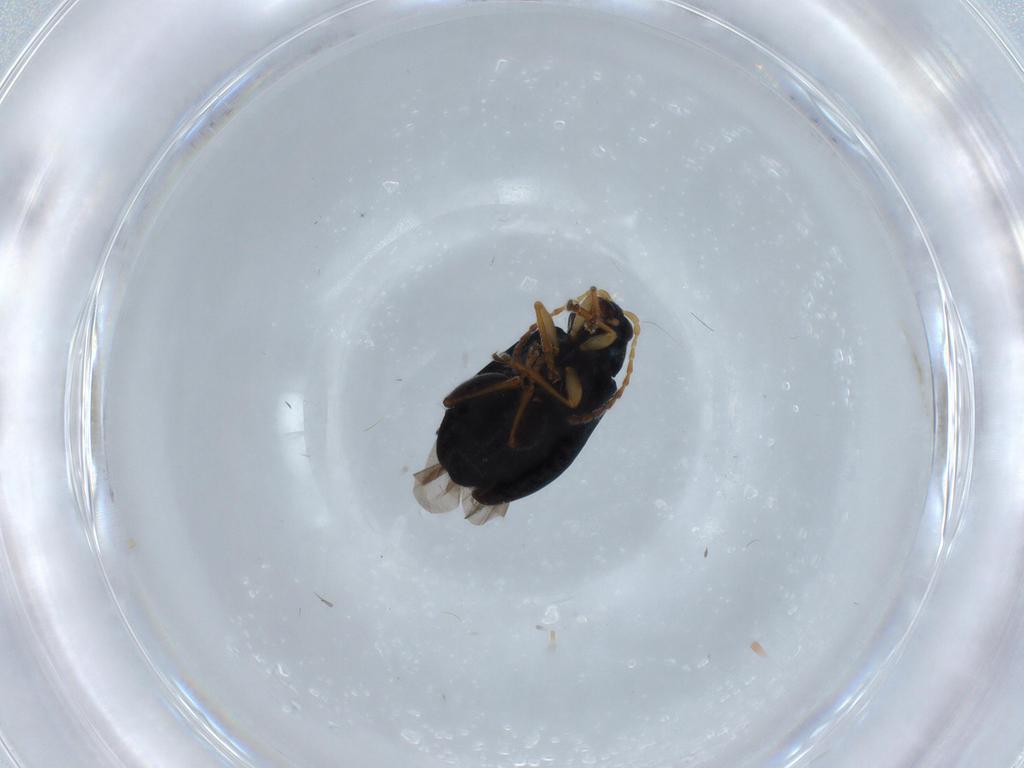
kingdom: Animalia
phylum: Arthropoda
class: Insecta
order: Coleoptera
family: Chrysomelidae
